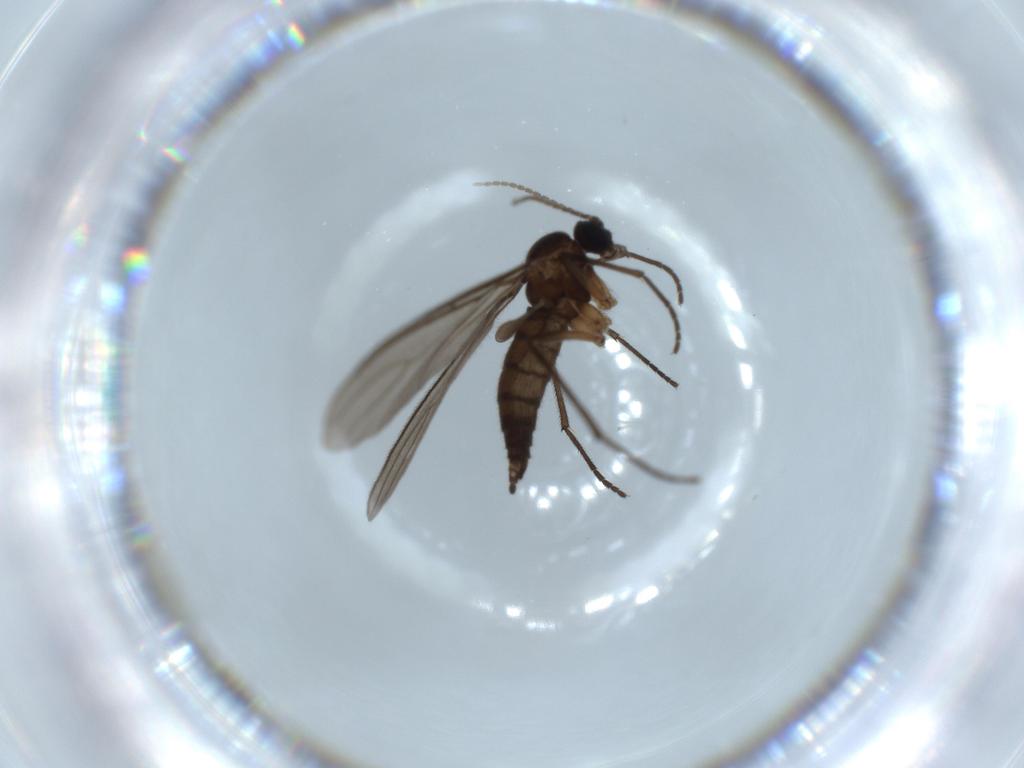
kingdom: Animalia
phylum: Arthropoda
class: Insecta
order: Diptera
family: Sciaridae
